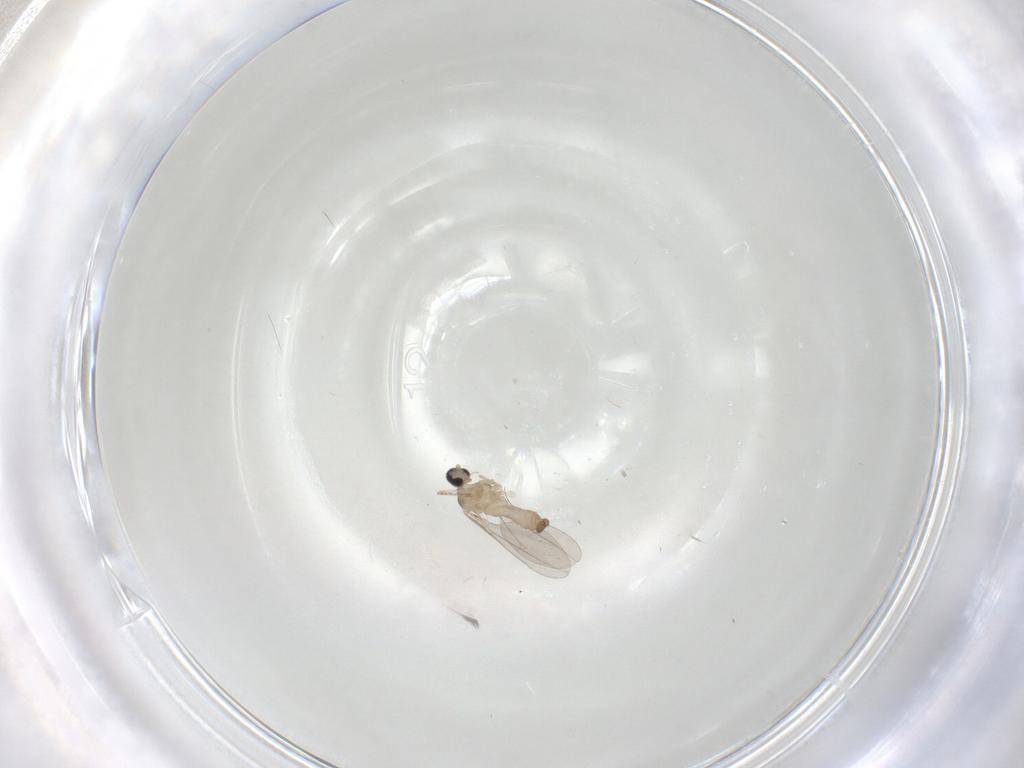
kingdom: Animalia
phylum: Arthropoda
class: Insecta
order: Diptera
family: Cecidomyiidae
